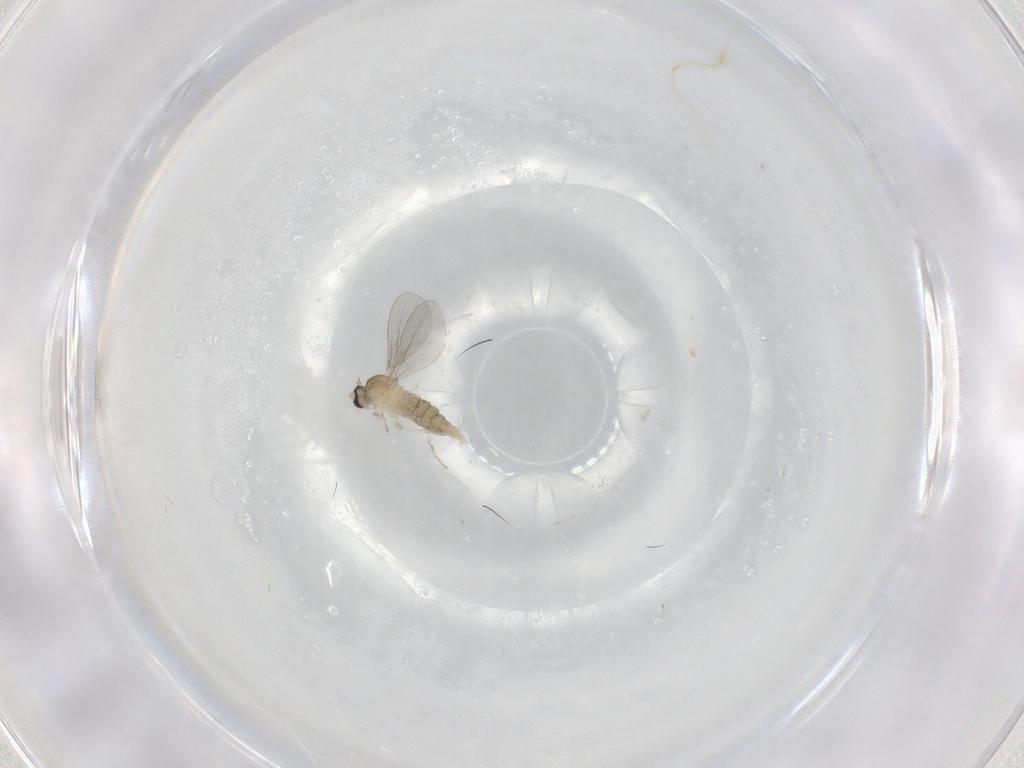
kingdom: Animalia
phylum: Arthropoda
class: Insecta
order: Diptera
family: Cecidomyiidae
